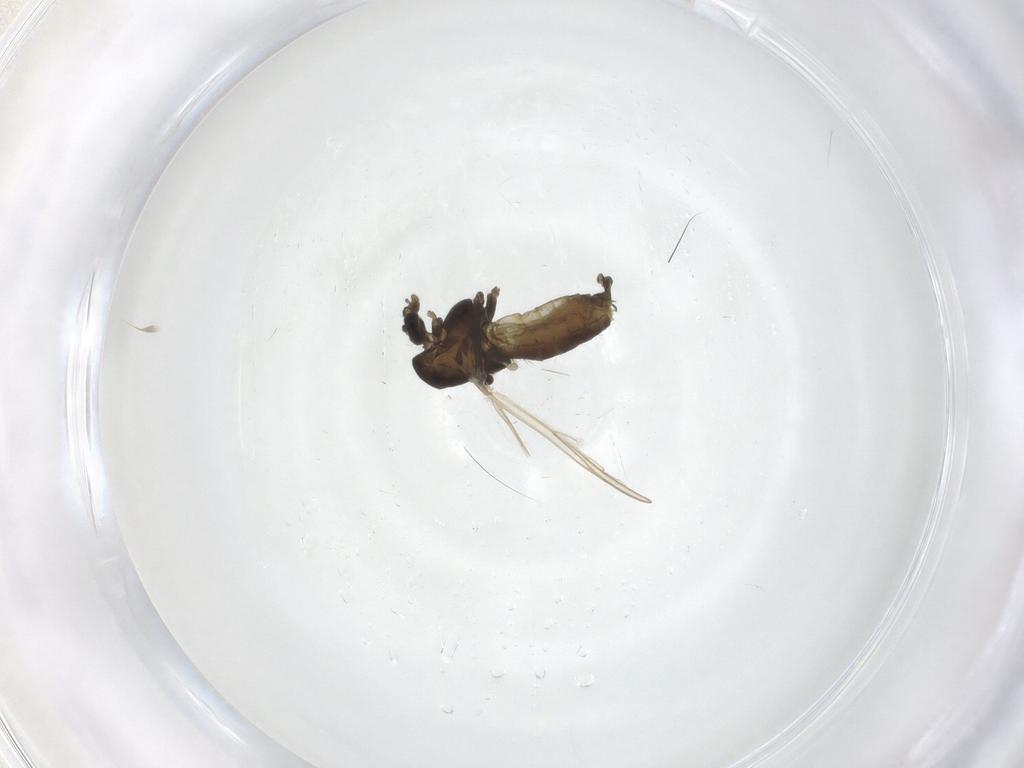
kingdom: Animalia
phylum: Arthropoda
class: Insecta
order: Diptera
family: Chironomidae
